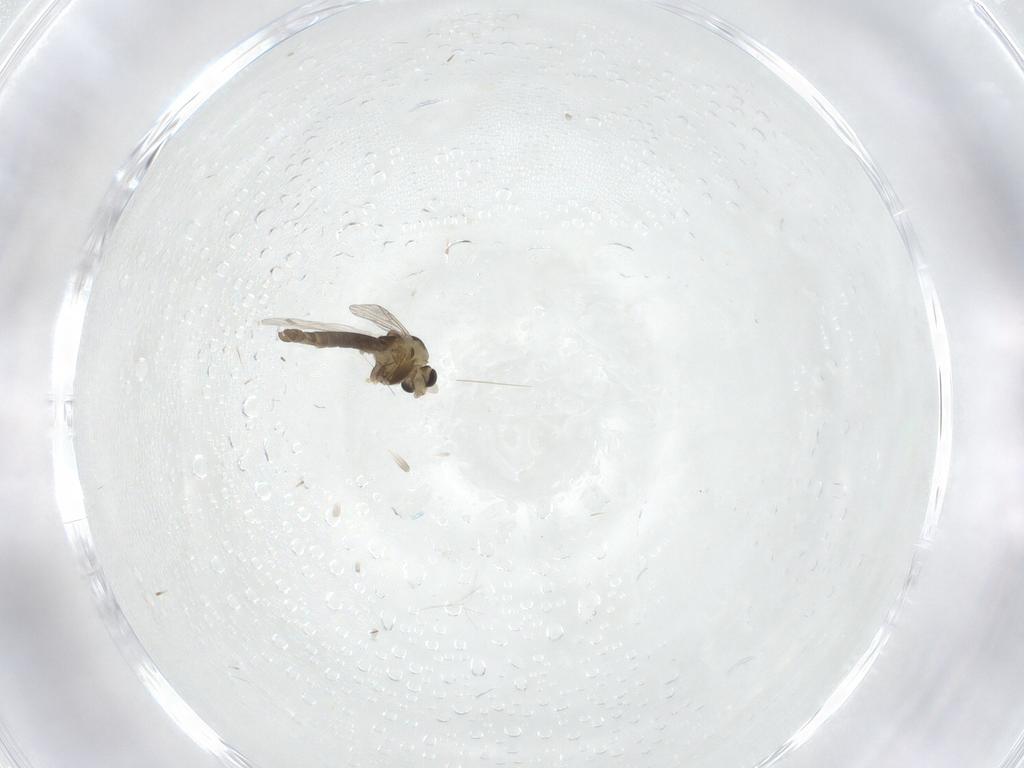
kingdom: Animalia
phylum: Arthropoda
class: Insecta
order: Diptera
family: Chironomidae
